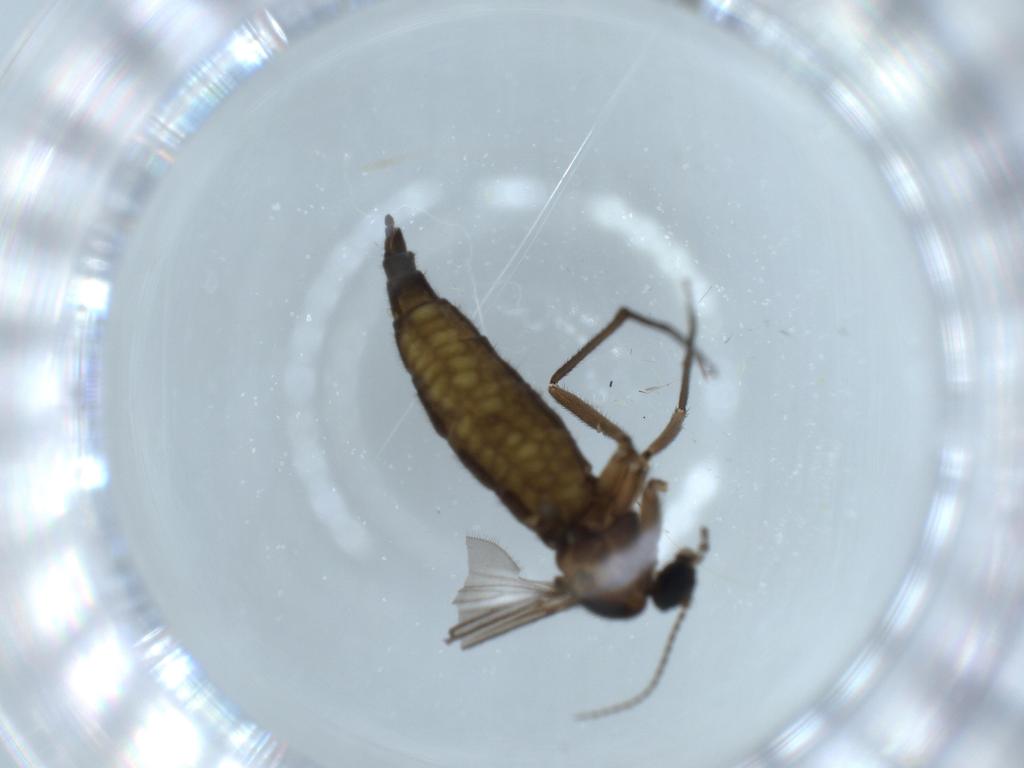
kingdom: Animalia
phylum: Arthropoda
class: Insecta
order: Diptera
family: Sciaridae
